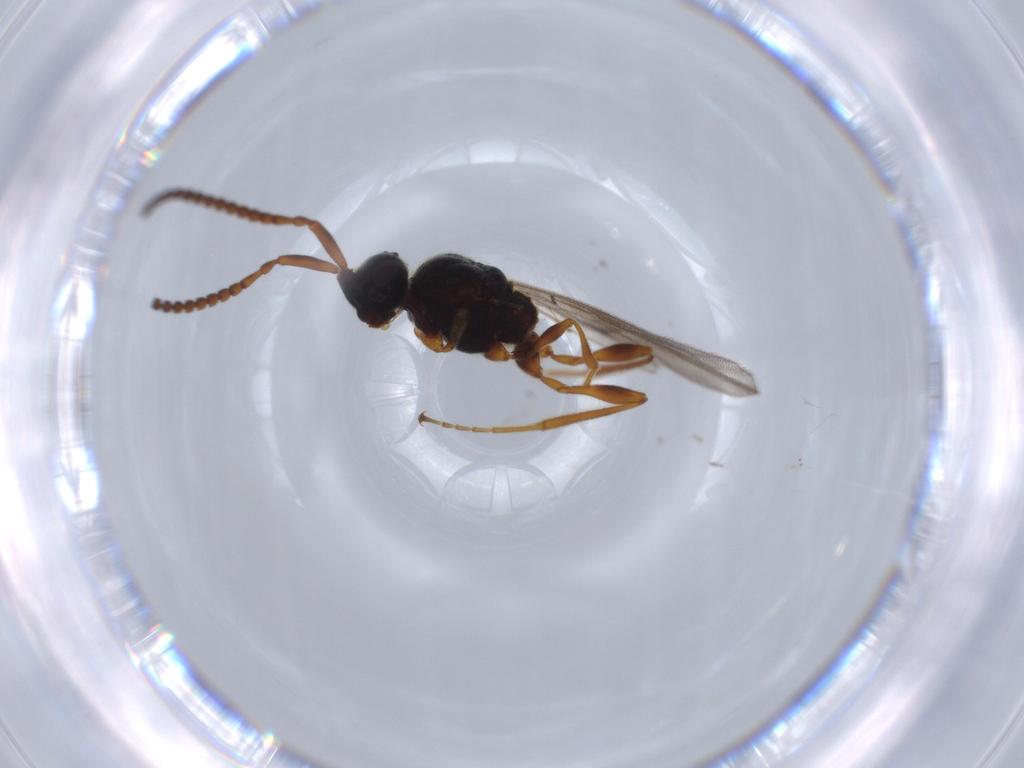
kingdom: Animalia
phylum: Arthropoda
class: Insecta
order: Hymenoptera
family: Formicidae
